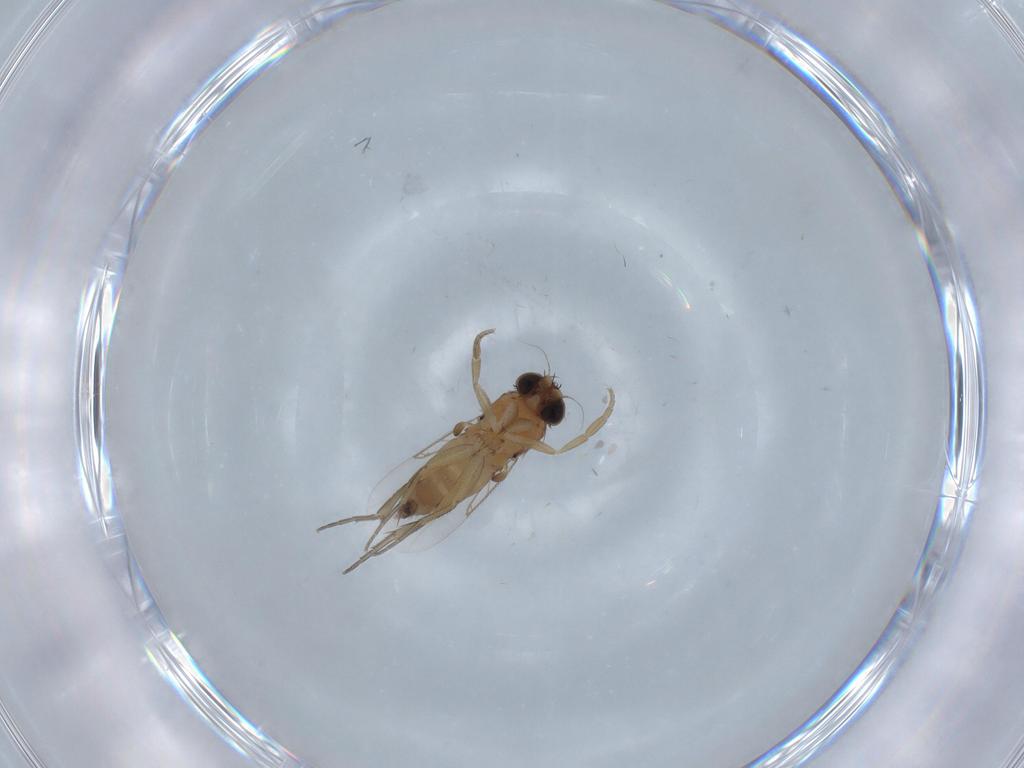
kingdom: Animalia
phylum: Arthropoda
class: Insecta
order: Diptera
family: Phoridae
